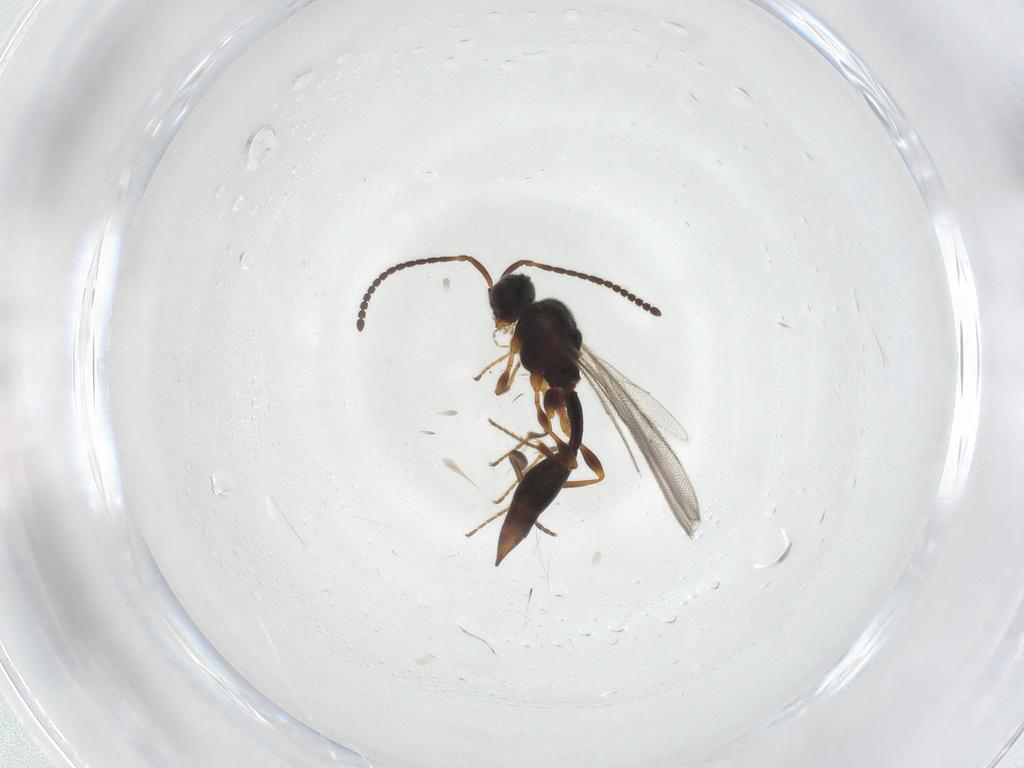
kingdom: Animalia
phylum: Arthropoda
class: Insecta
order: Hymenoptera
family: Diapriidae
